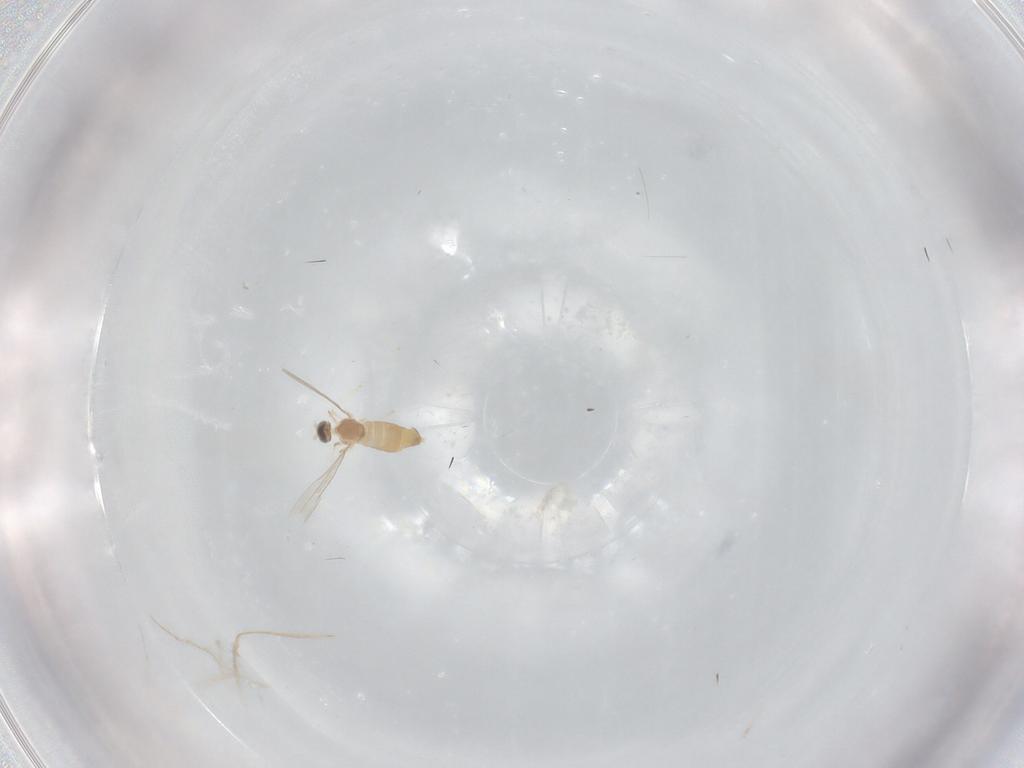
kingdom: Animalia
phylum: Arthropoda
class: Insecta
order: Diptera
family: Cecidomyiidae
